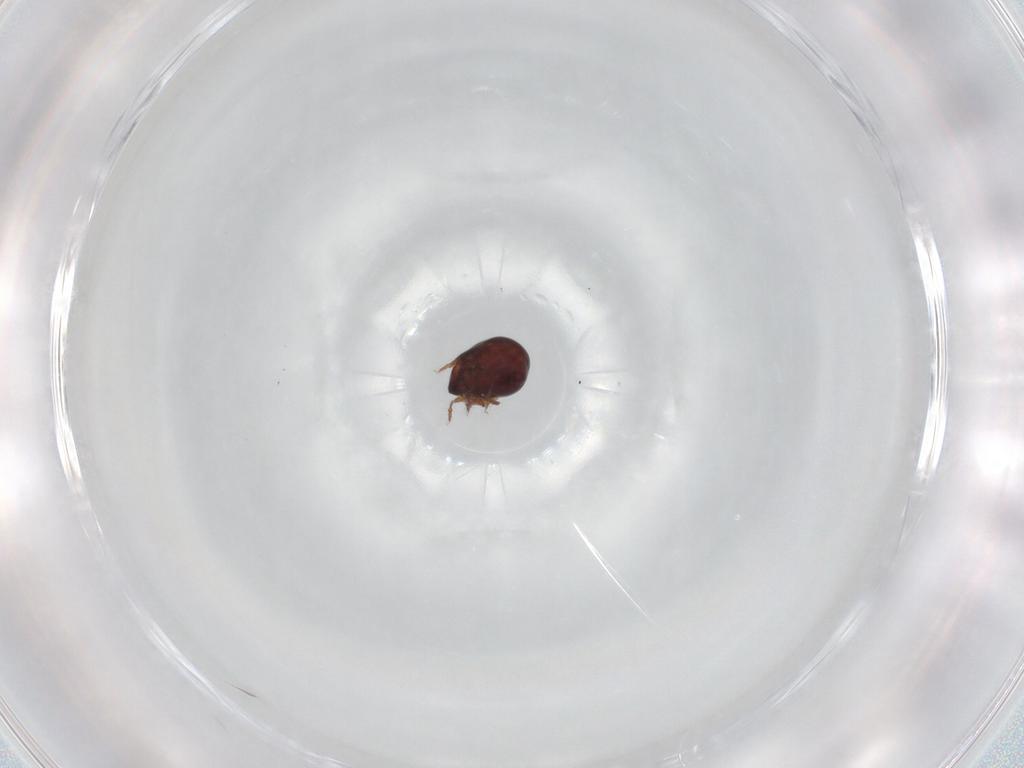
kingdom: Animalia
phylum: Arthropoda
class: Arachnida
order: Sarcoptiformes
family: Galumnidae
